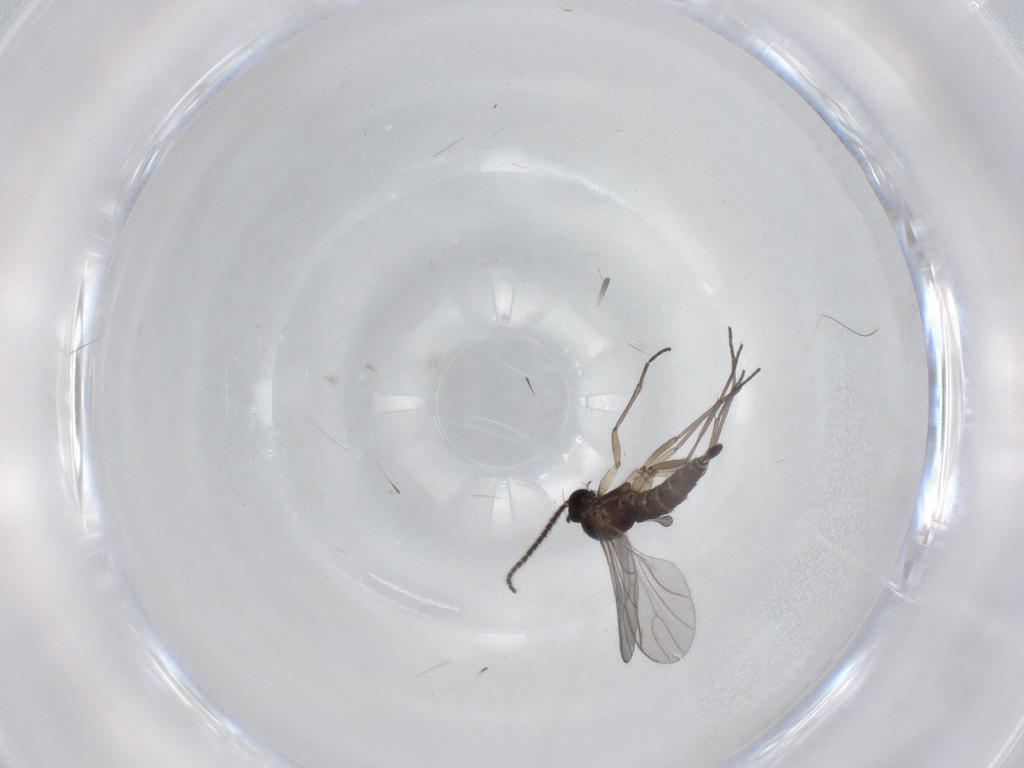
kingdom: Animalia
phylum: Arthropoda
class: Insecta
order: Diptera
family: Sciaridae
